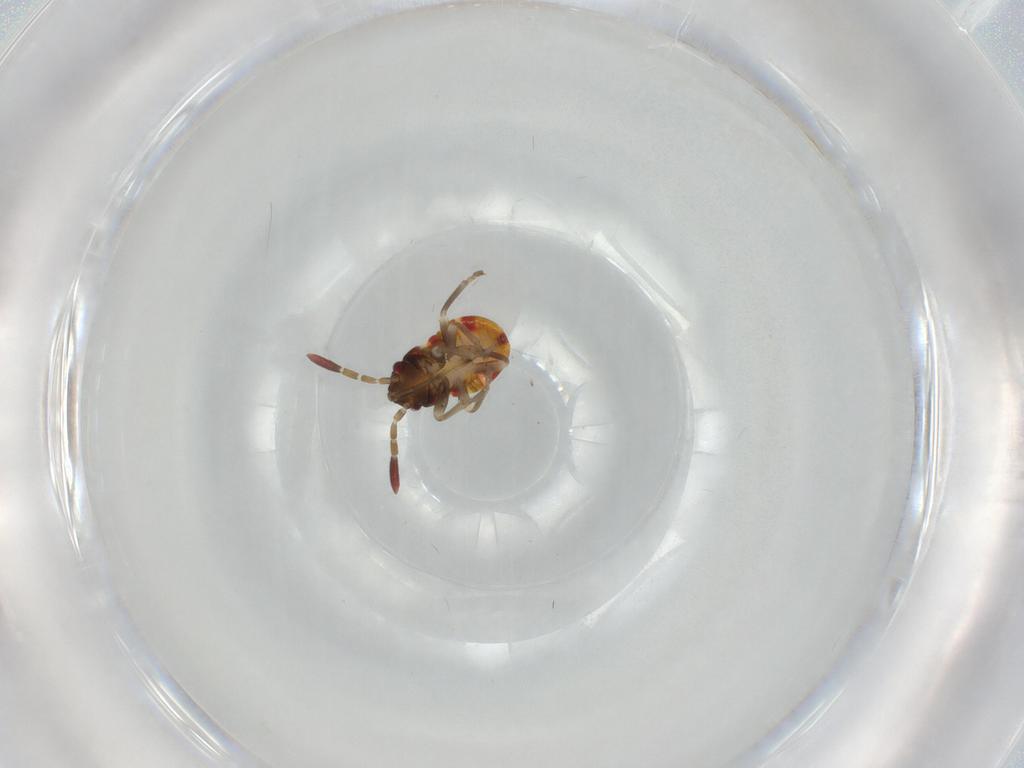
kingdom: Animalia
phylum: Arthropoda
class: Insecta
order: Hemiptera
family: Rhyparochromidae
